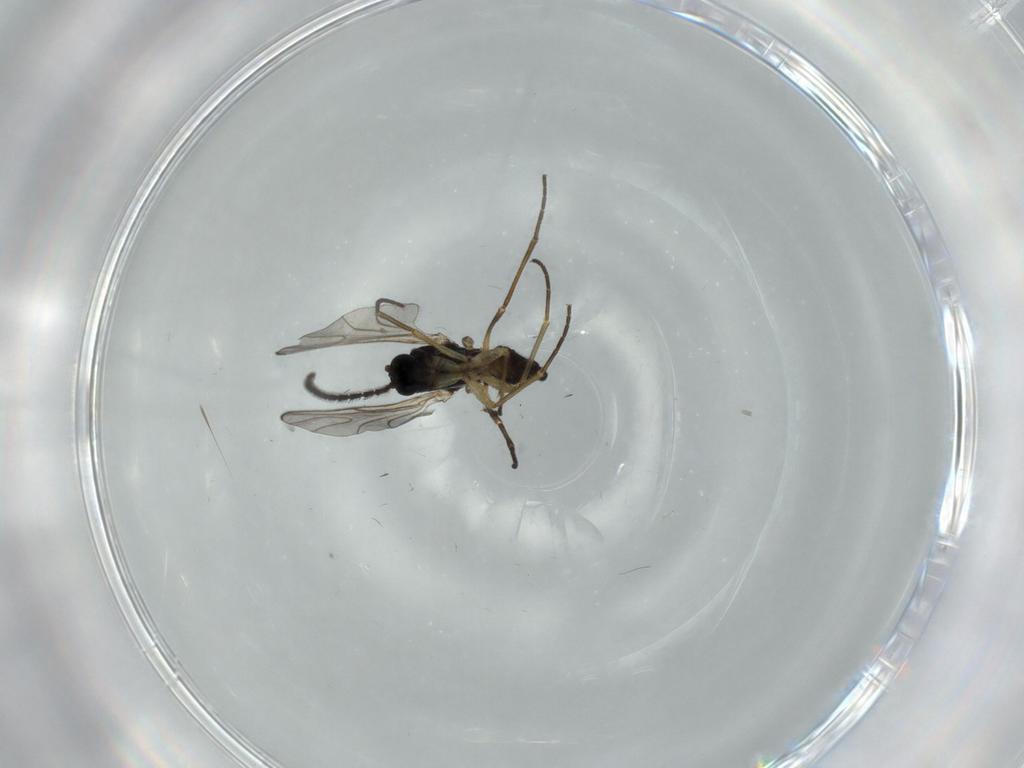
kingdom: Animalia
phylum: Arthropoda
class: Insecta
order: Diptera
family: Sciaridae
